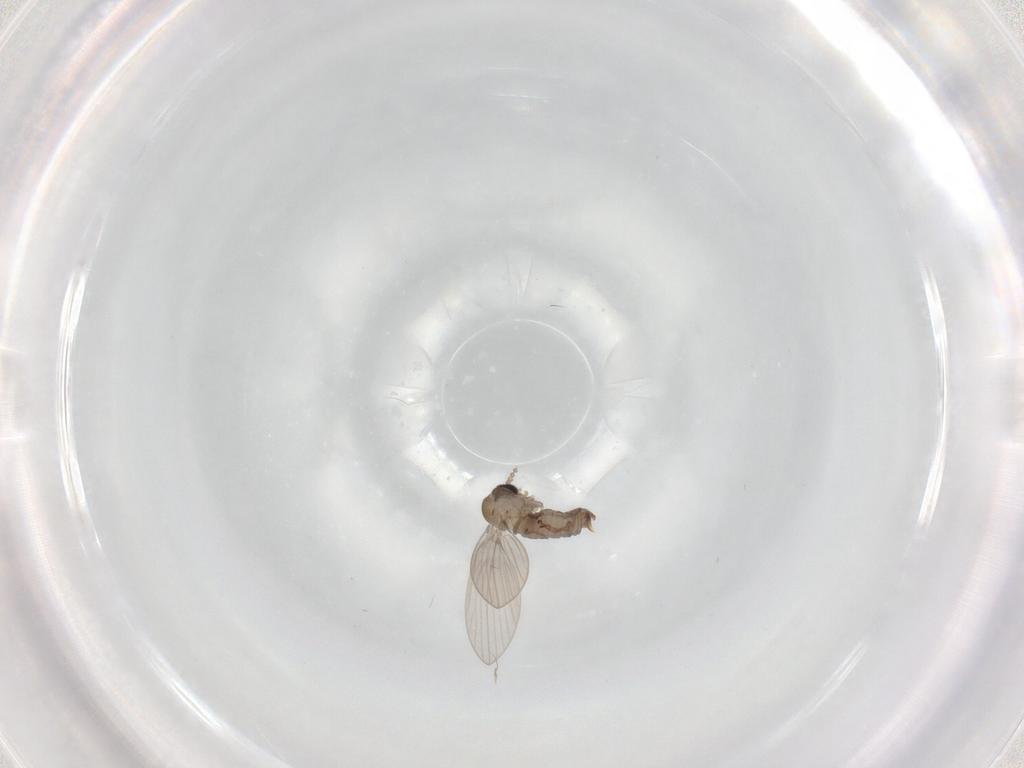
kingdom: Animalia
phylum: Arthropoda
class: Insecta
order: Diptera
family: Psychodidae
